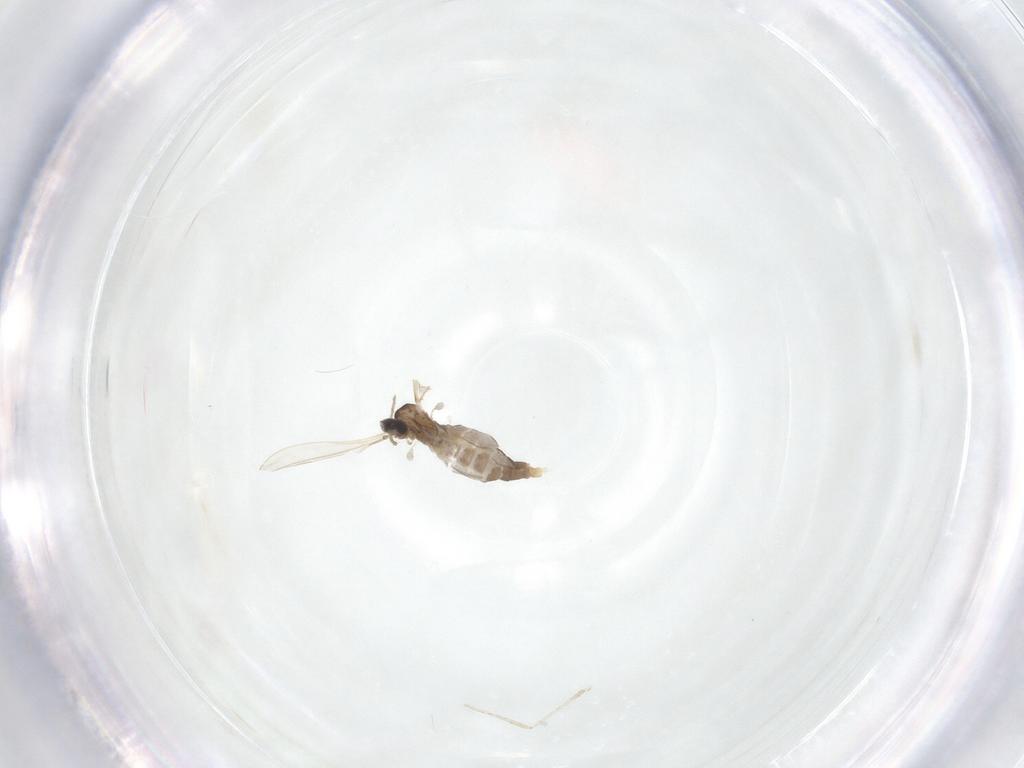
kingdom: Animalia
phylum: Arthropoda
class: Insecta
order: Diptera
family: Cecidomyiidae
